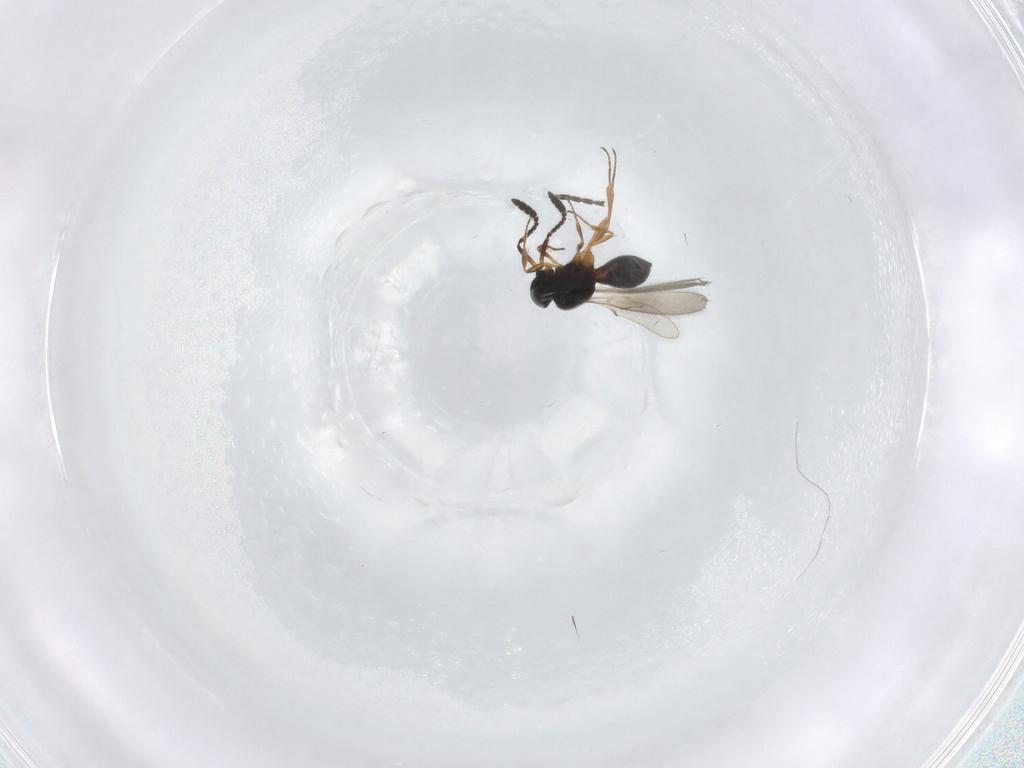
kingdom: Animalia
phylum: Arthropoda
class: Insecta
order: Hymenoptera
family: Scelionidae
